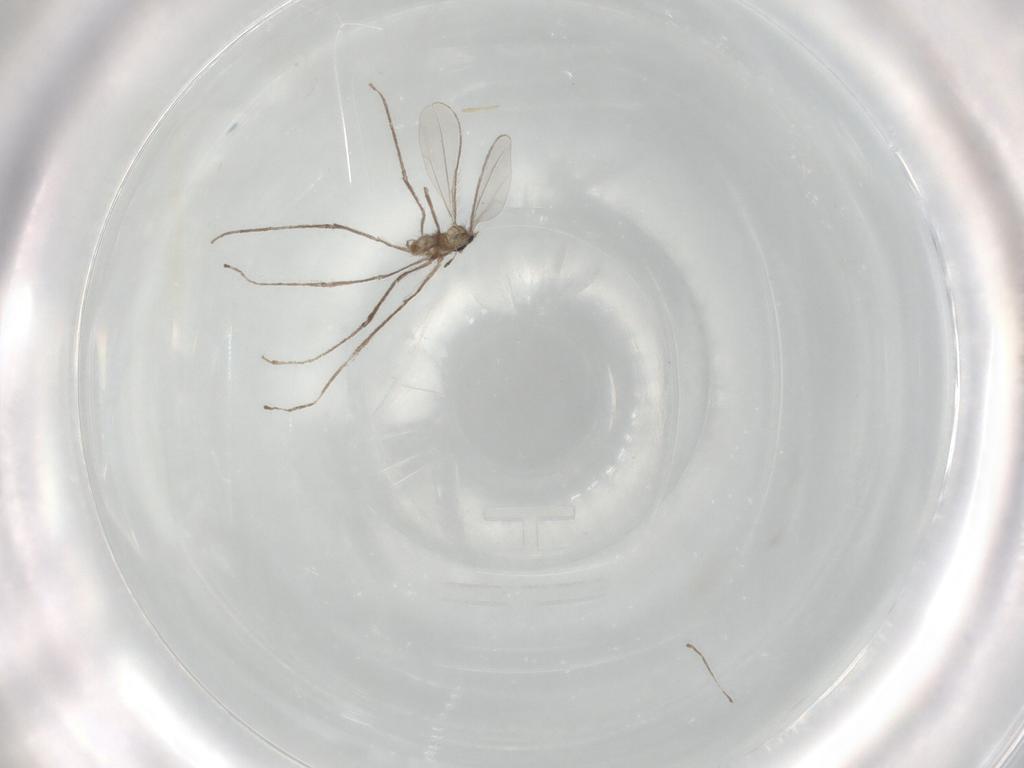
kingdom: Animalia
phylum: Arthropoda
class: Insecta
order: Diptera
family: Cecidomyiidae
